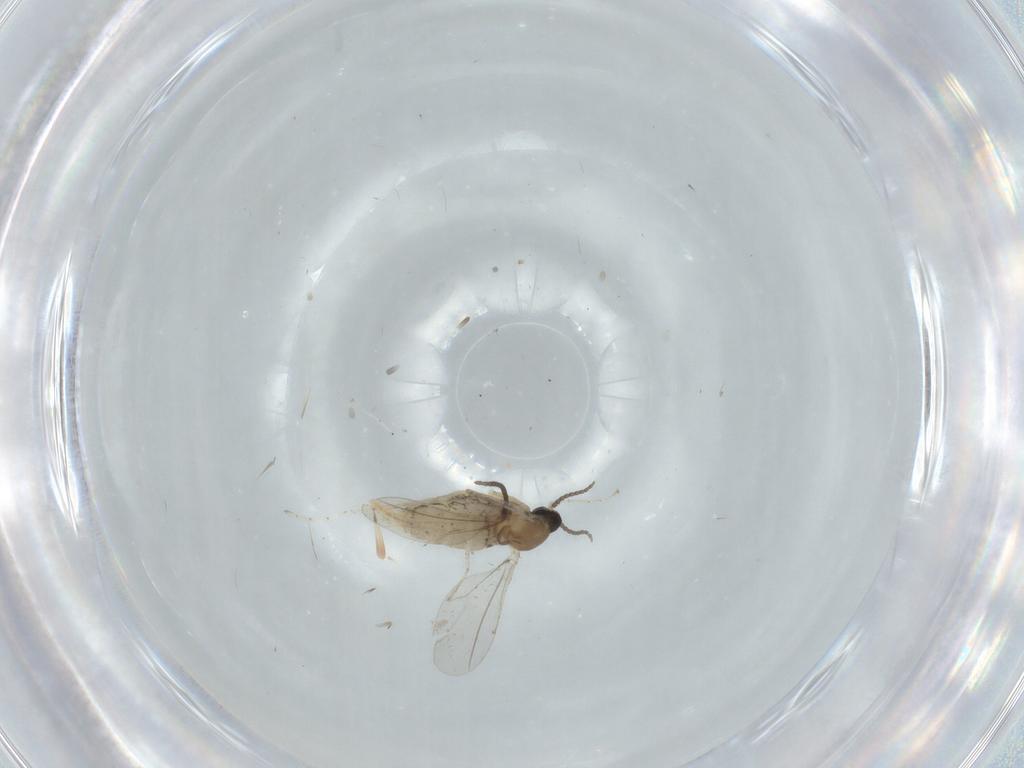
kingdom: Animalia
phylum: Arthropoda
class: Insecta
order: Diptera
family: Cecidomyiidae
